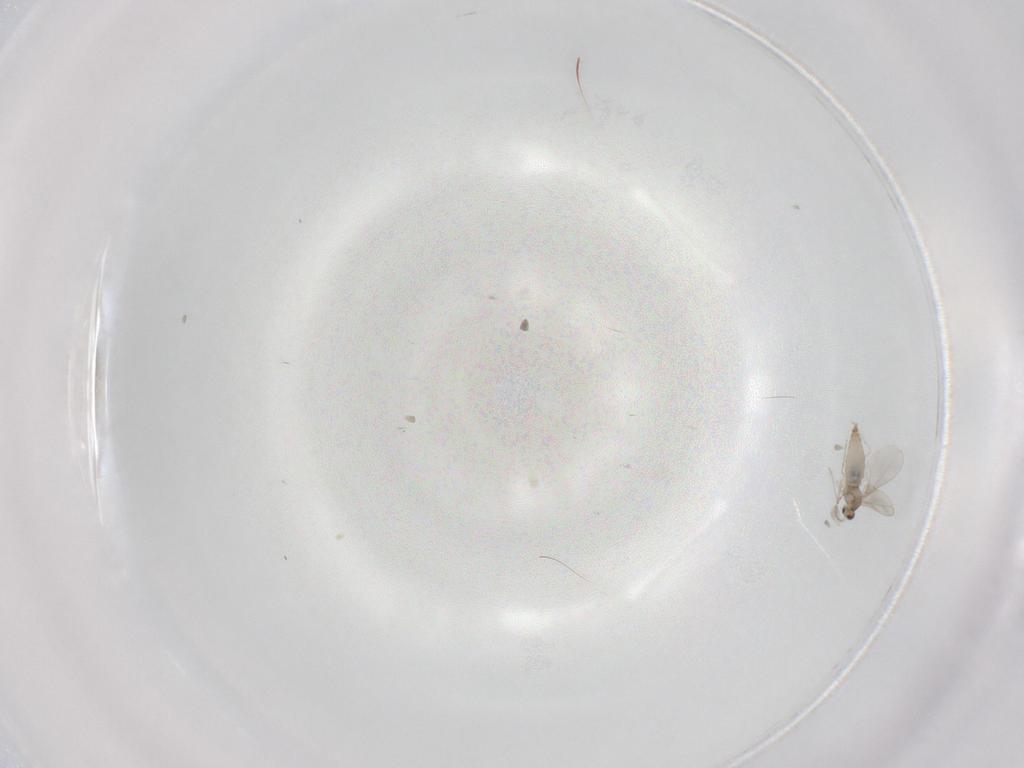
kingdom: Animalia
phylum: Arthropoda
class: Insecta
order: Diptera
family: Cecidomyiidae
